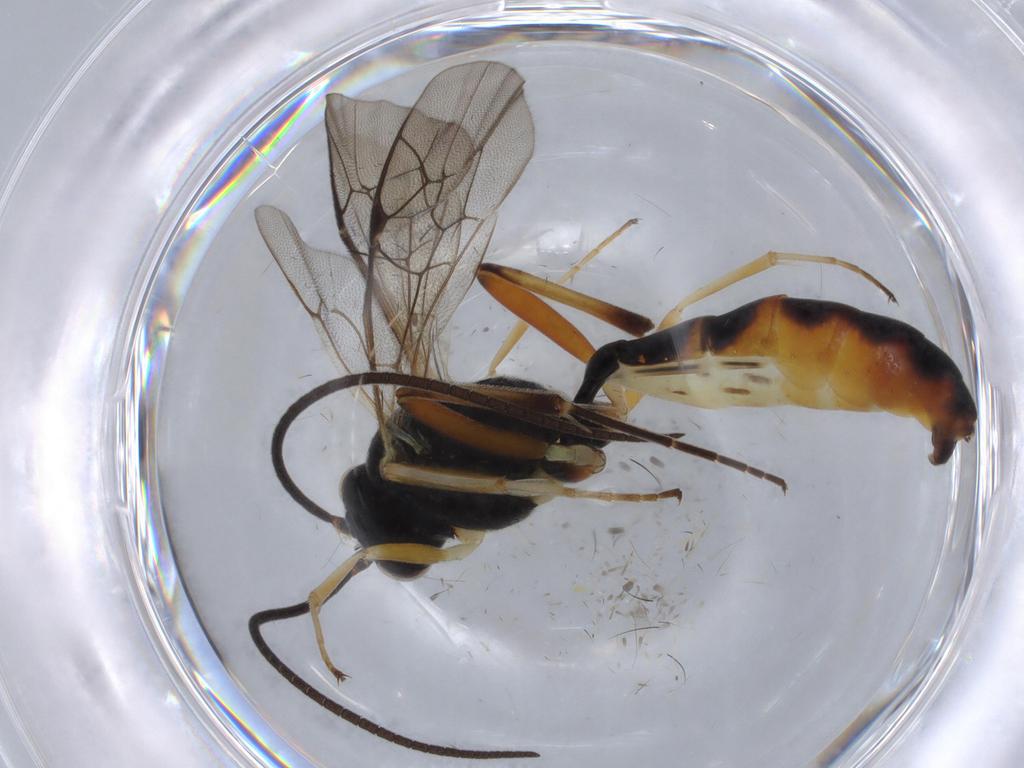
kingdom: Animalia
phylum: Arthropoda
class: Insecta
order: Hymenoptera
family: Ichneumonidae
